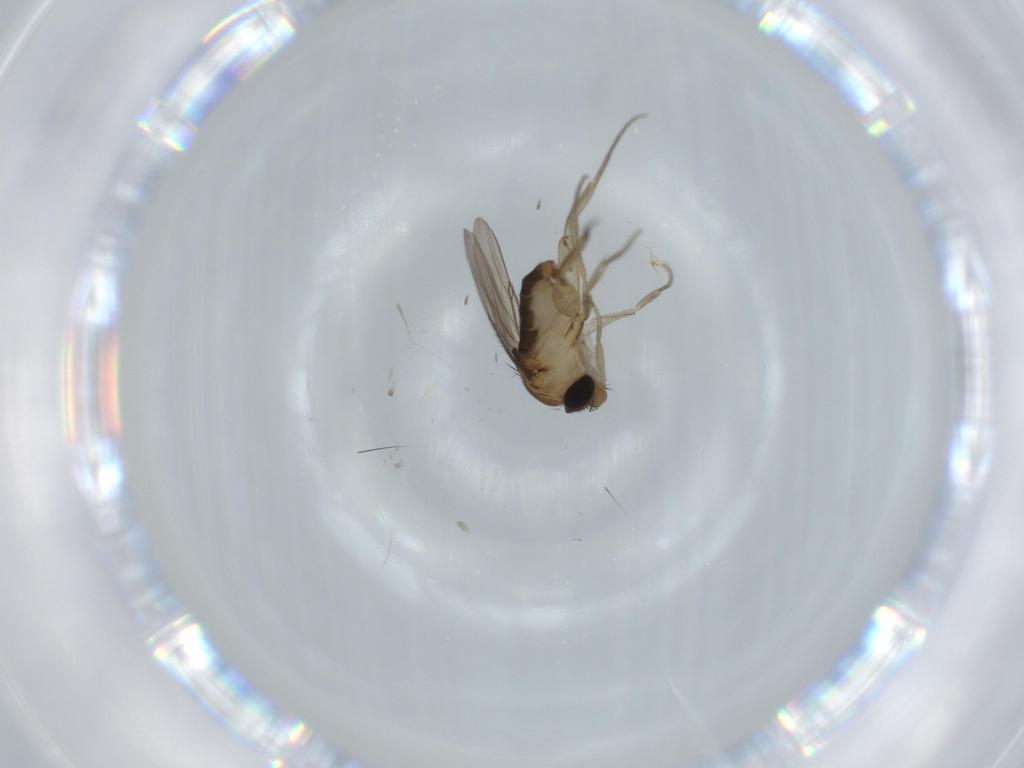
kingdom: Animalia
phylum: Arthropoda
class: Insecta
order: Diptera
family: Phoridae
